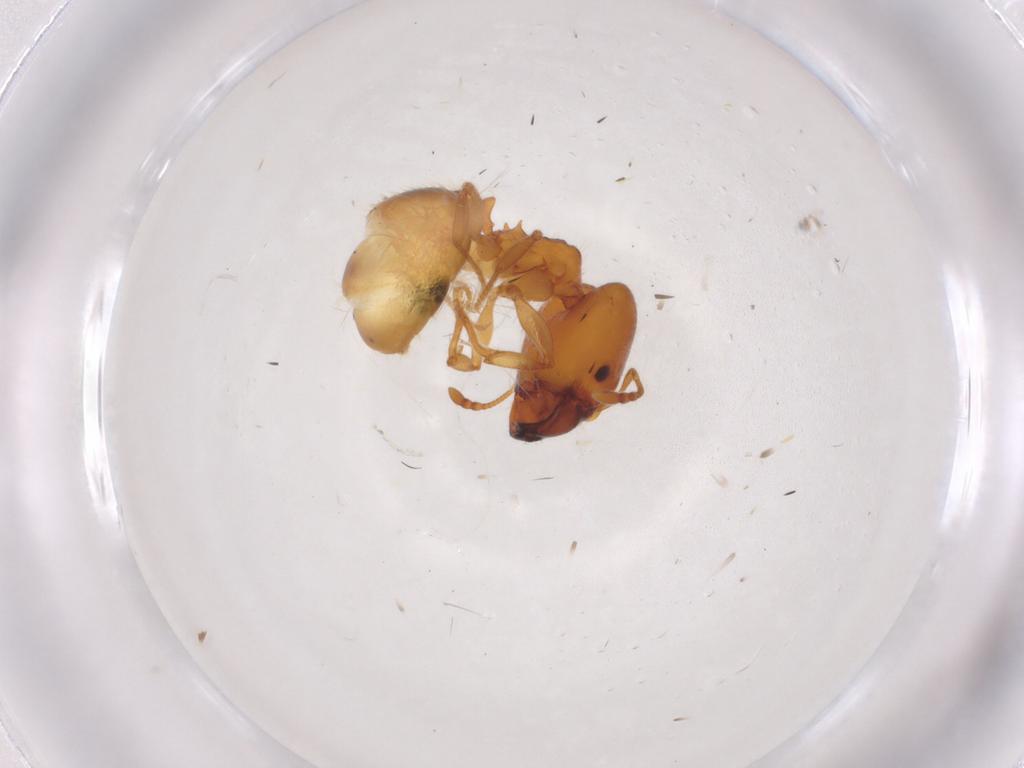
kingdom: Animalia
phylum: Arthropoda
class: Insecta
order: Hymenoptera
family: Formicidae
